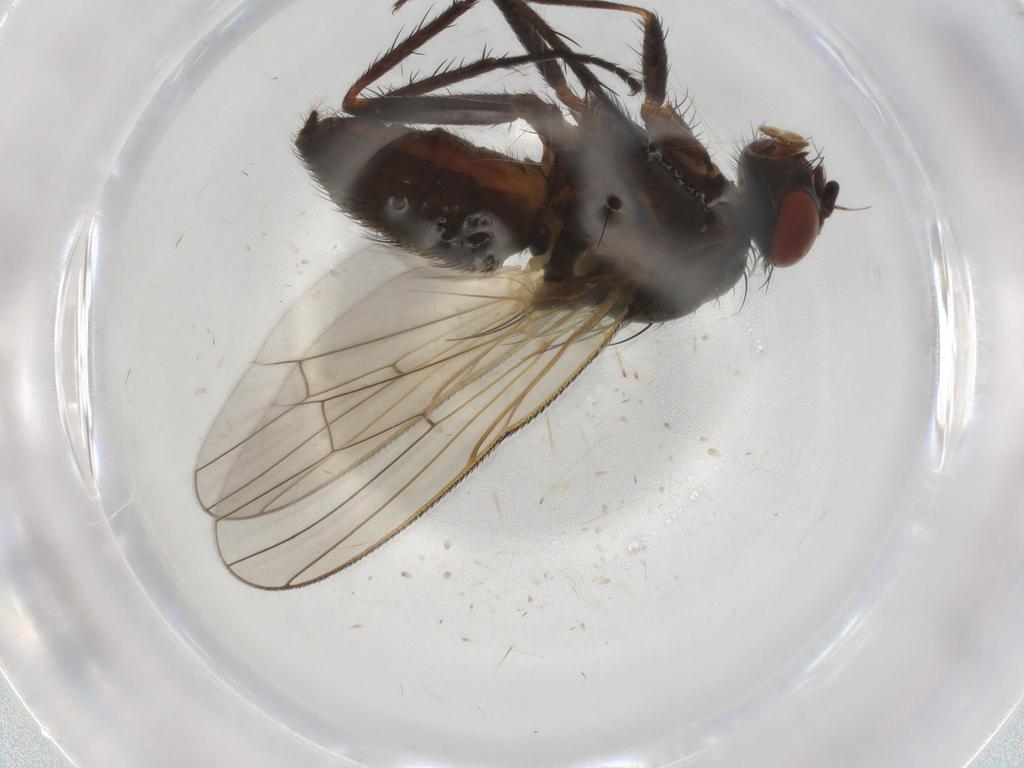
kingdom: Animalia
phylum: Arthropoda
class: Insecta
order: Diptera
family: Anthomyiidae
